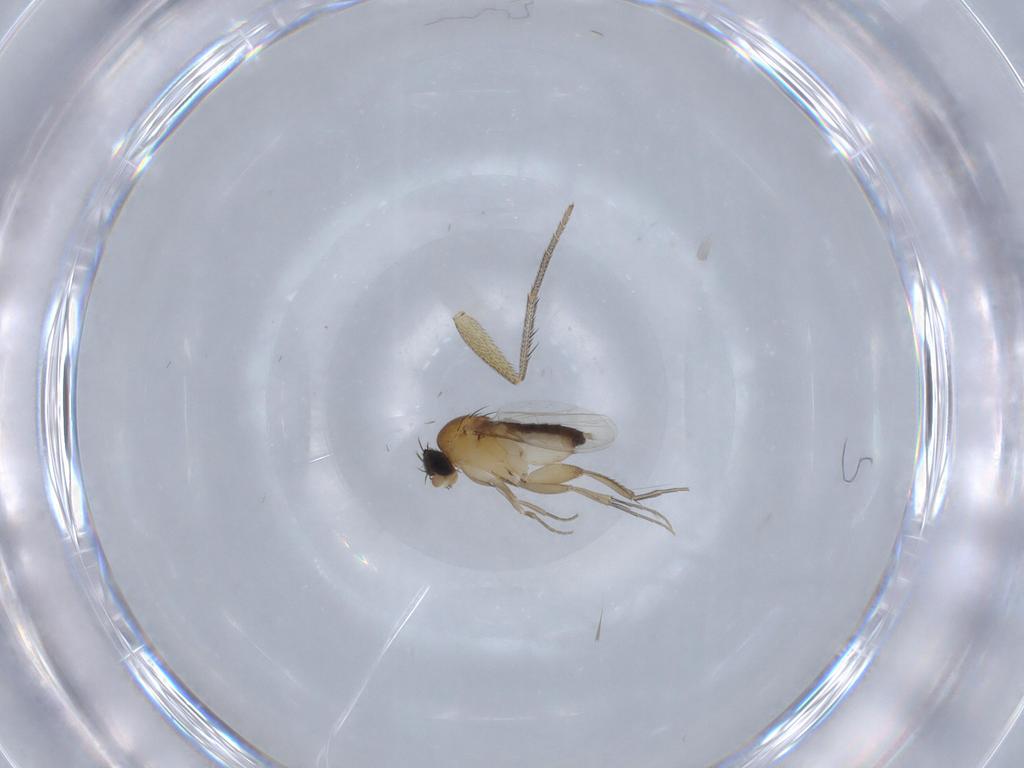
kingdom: Animalia
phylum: Arthropoda
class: Insecta
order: Diptera
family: Phoridae
